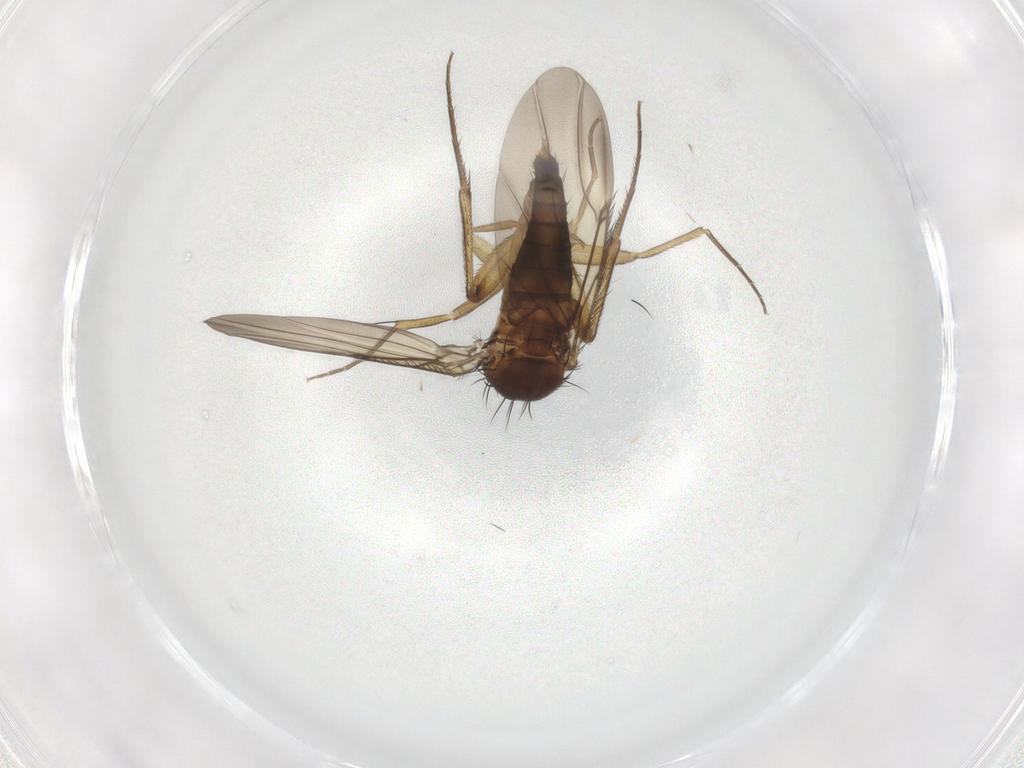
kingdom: Animalia
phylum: Arthropoda
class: Insecta
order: Diptera
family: Phoridae
